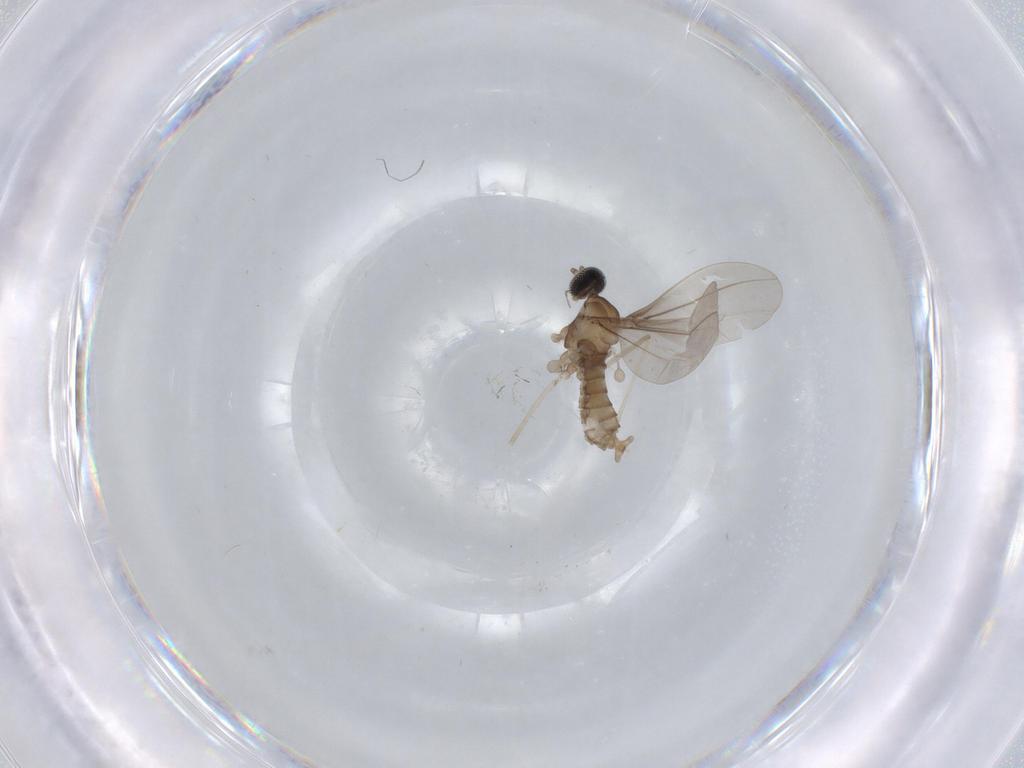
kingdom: Animalia
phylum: Arthropoda
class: Insecta
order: Diptera
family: Cecidomyiidae
